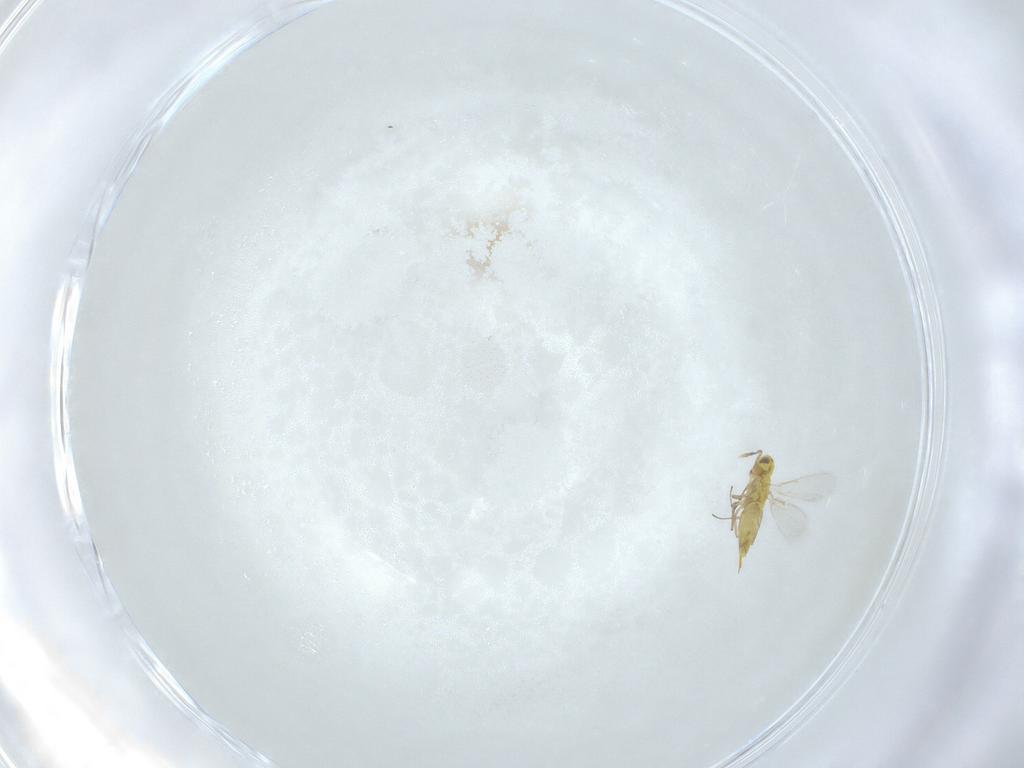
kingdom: Animalia
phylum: Arthropoda
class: Insecta
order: Hymenoptera
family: Aphelinidae
